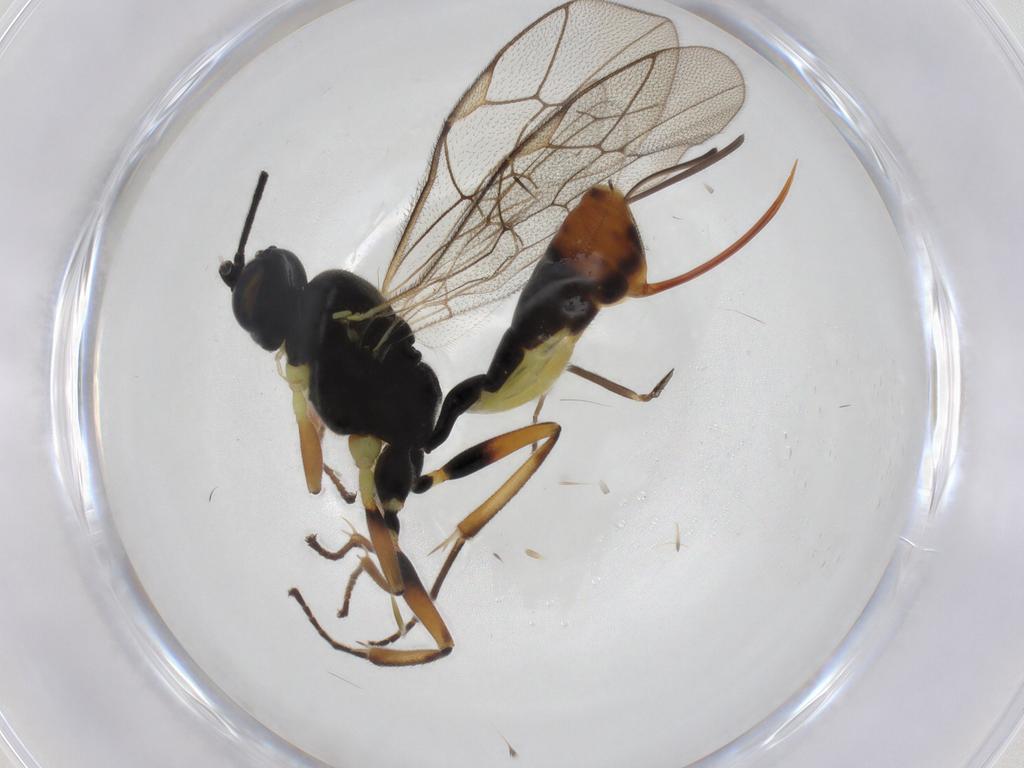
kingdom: Animalia
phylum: Arthropoda
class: Insecta
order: Hymenoptera
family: Ichneumonidae
